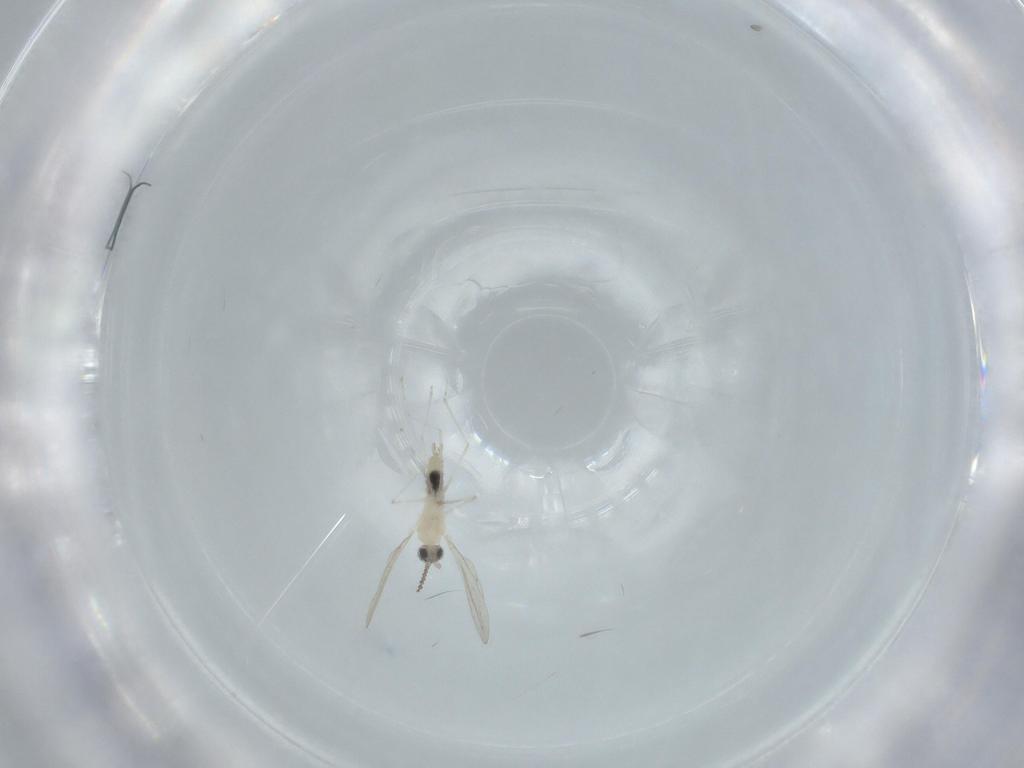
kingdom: Animalia
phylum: Arthropoda
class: Insecta
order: Diptera
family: Cecidomyiidae
